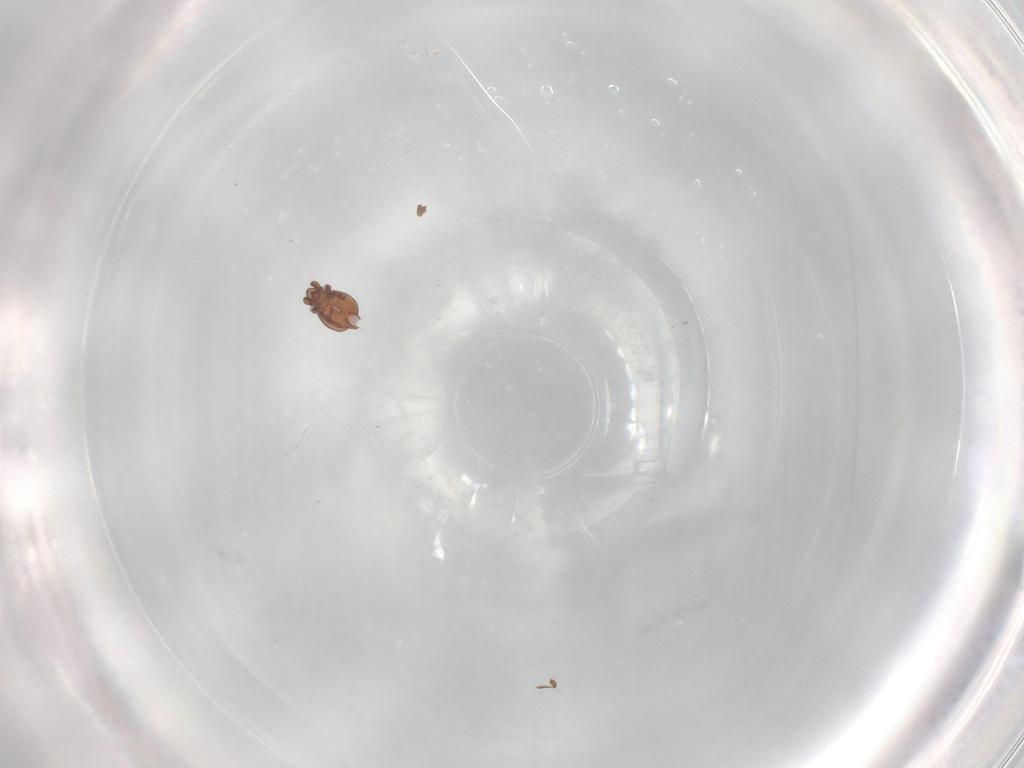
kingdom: Animalia
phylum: Arthropoda
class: Arachnida
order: Sarcoptiformes
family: Eremaeidae
